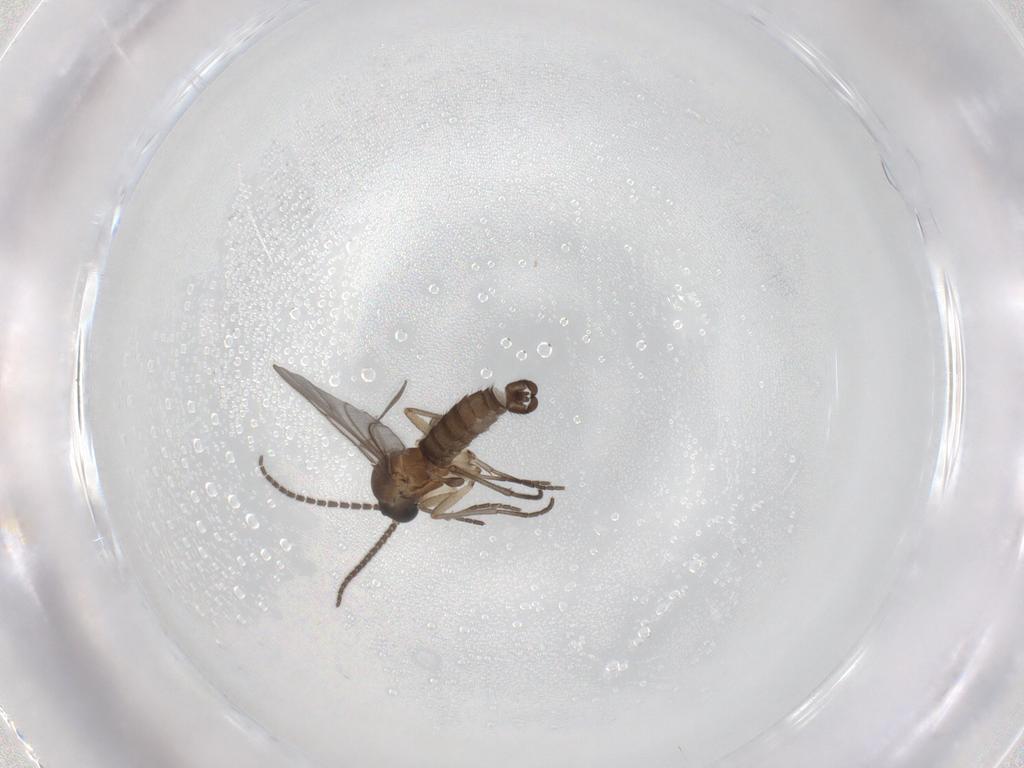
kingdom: Animalia
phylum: Arthropoda
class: Insecta
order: Diptera
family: Sciaridae
